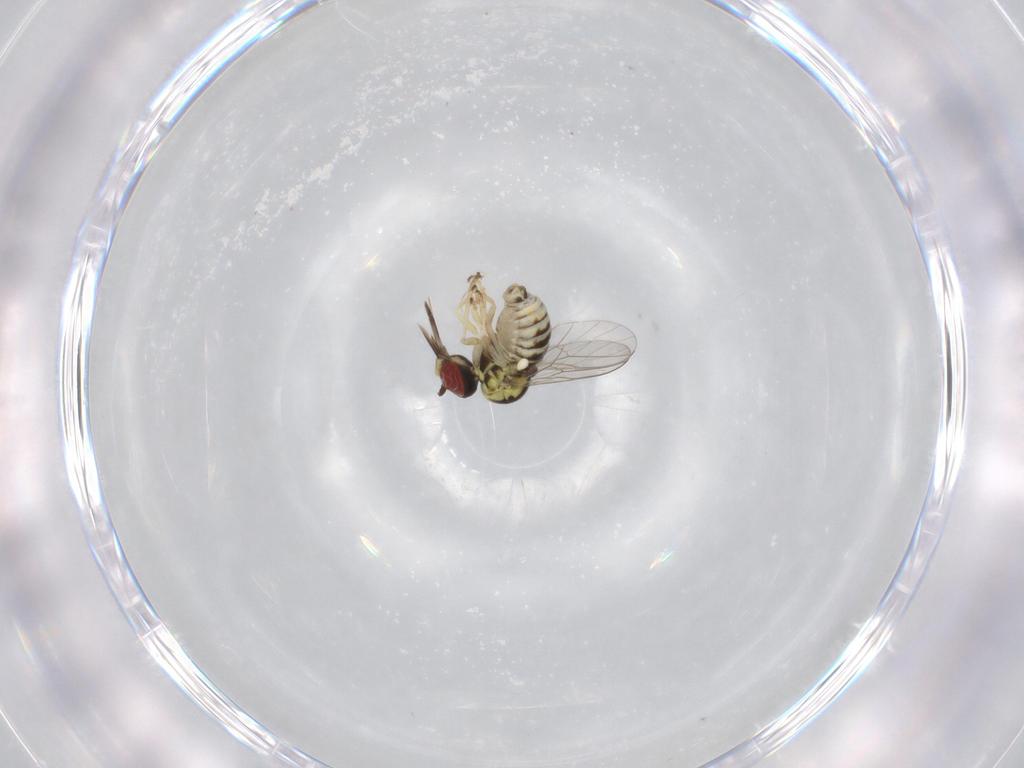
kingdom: Animalia
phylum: Arthropoda
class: Insecta
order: Diptera
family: Bombyliidae
